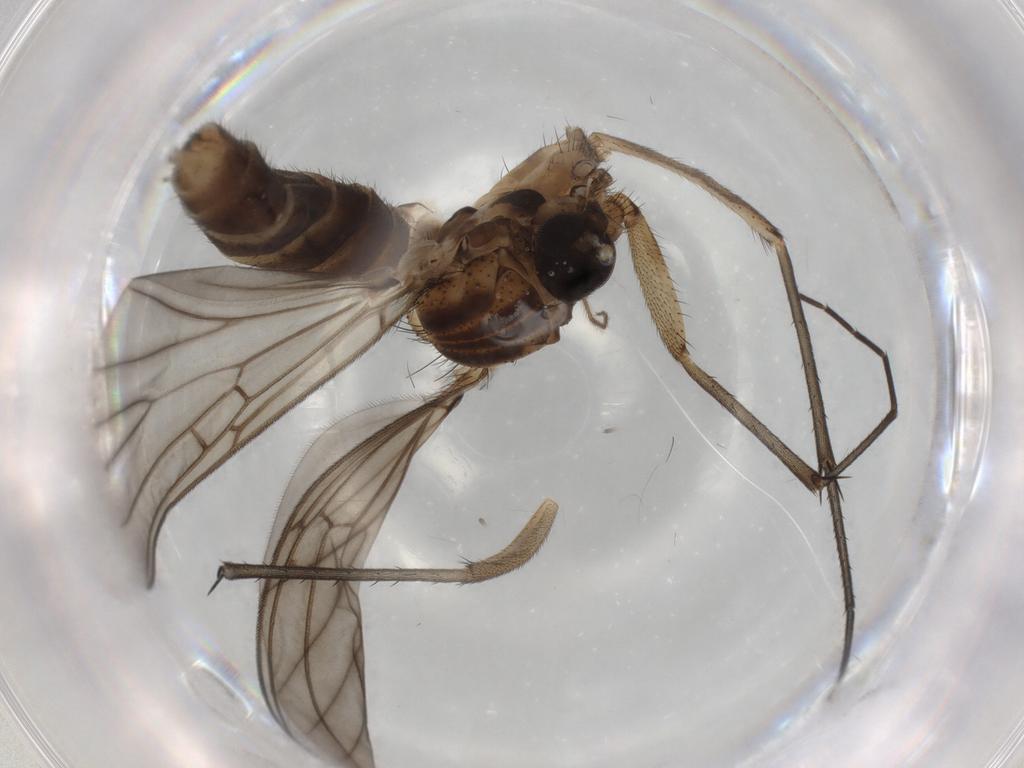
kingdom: Animalia
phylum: Arthropoda
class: Insecta
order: Diptera
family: Mycetophilidae
